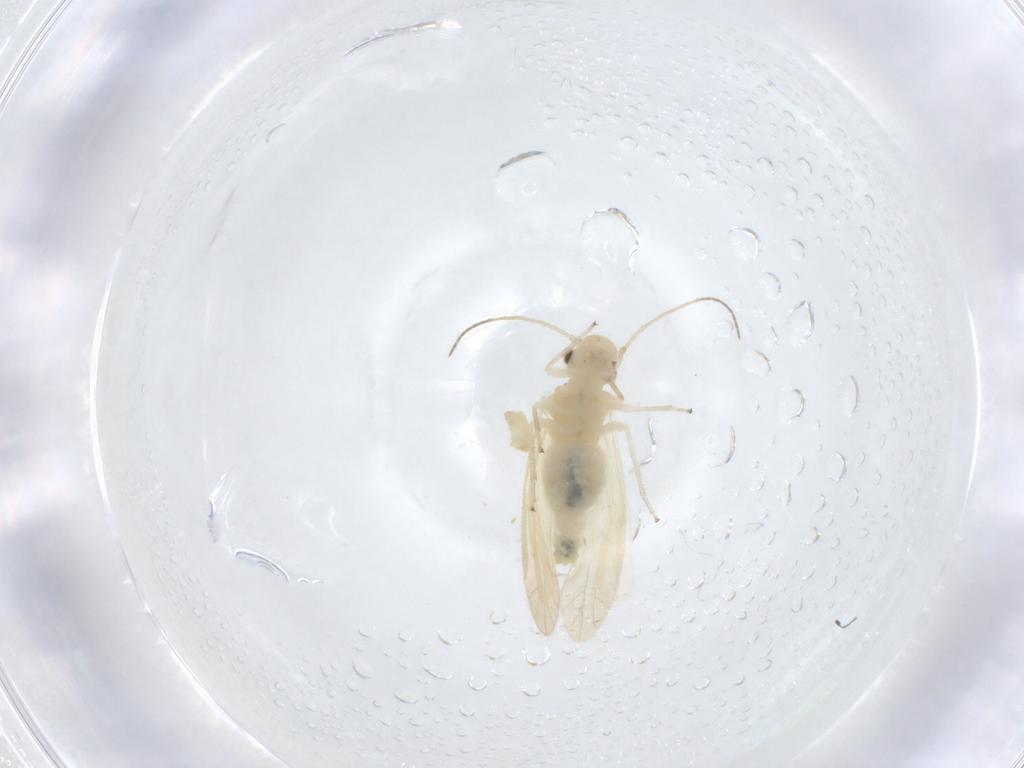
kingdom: Animalia
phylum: Arthropoda
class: Insecta
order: Psocodea
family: Caeciliusidae
